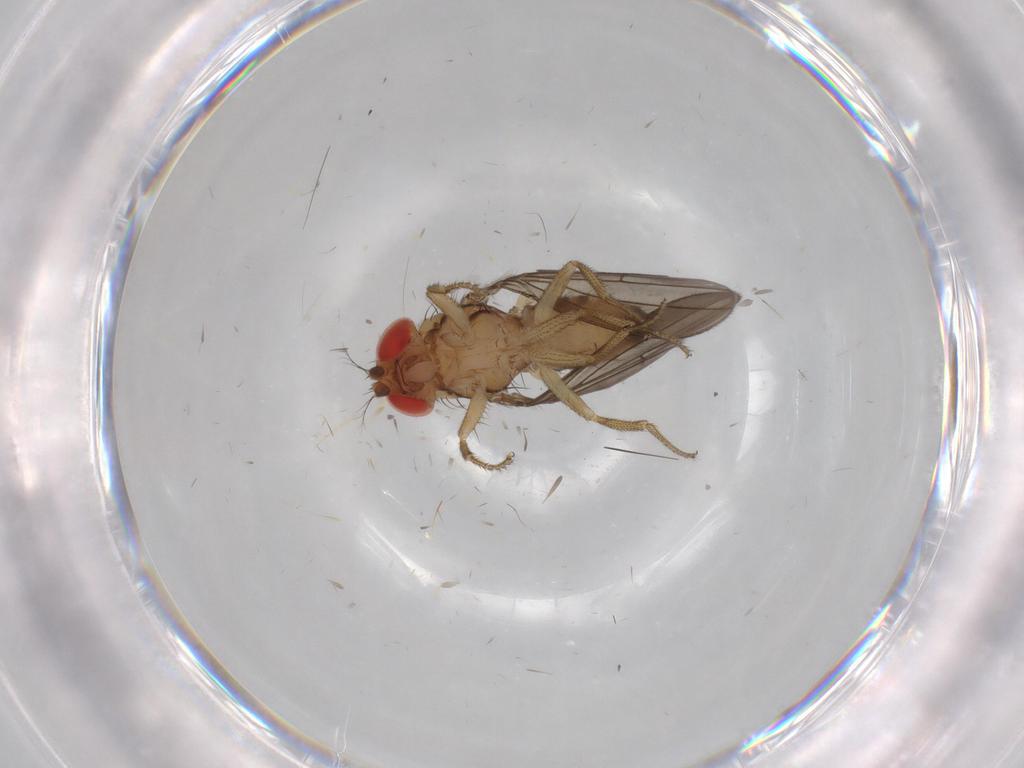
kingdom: Animalia
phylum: Arthropoda
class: Insecta
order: Diptera
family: Drosophilidae
